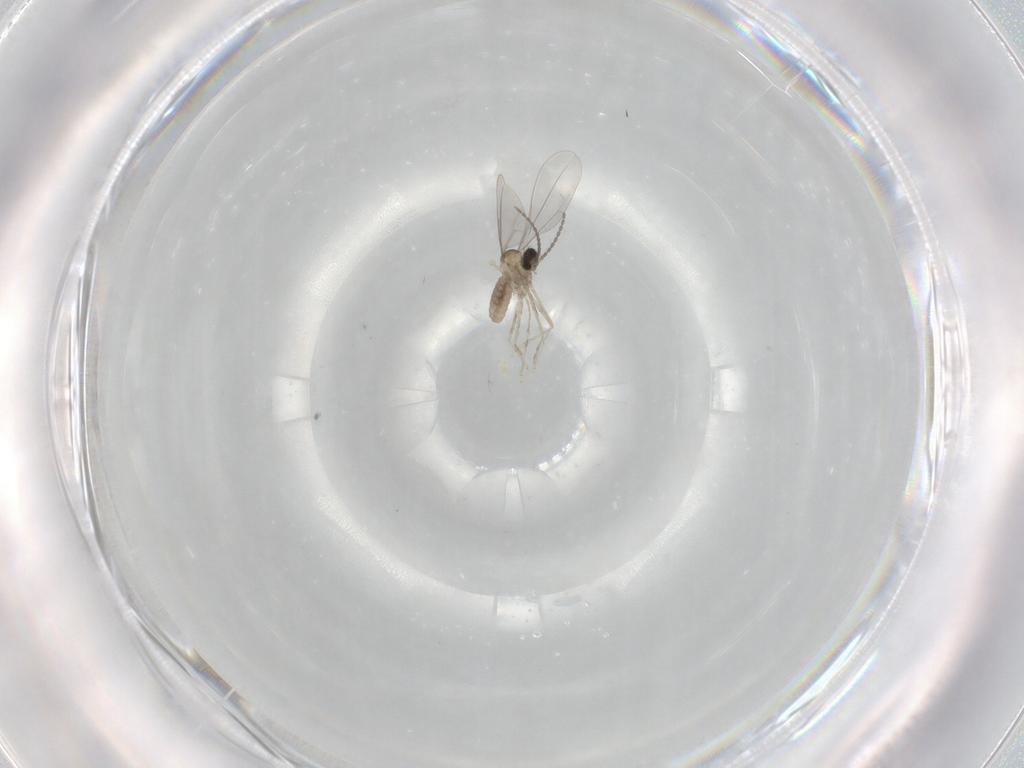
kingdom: Animalia
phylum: Arthropoda
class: Insecta
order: Diptera
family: Cecidomyiidae
